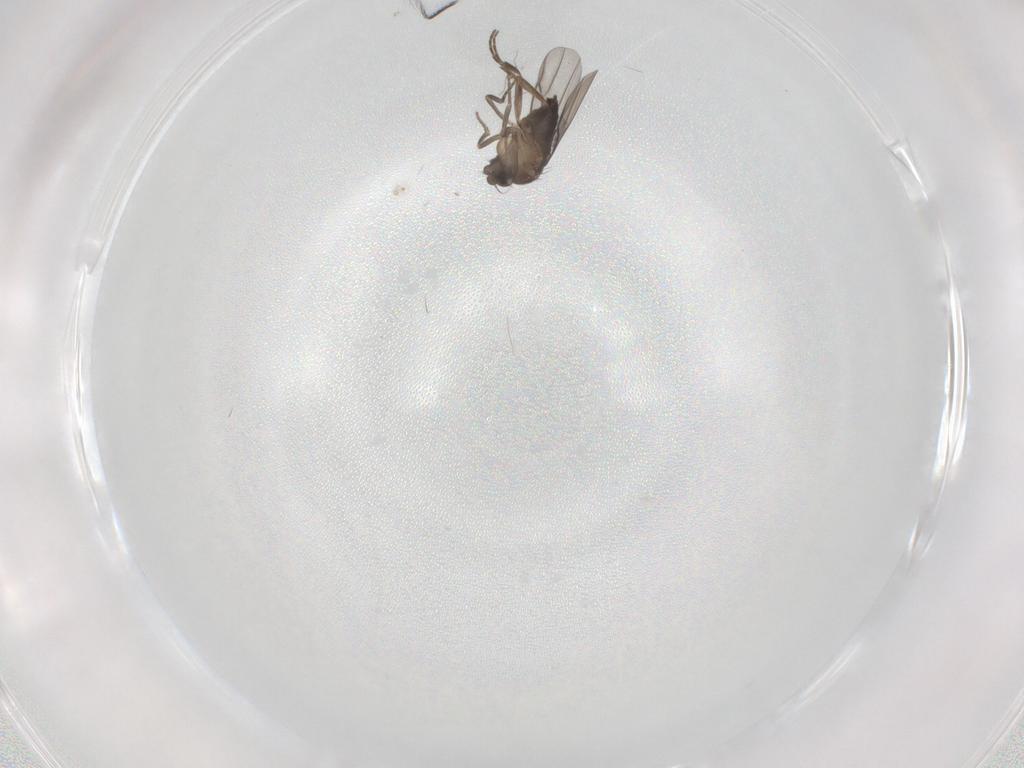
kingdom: Animalia
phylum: Arthropoda
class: Insecta
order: Diptera
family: Phoridae
